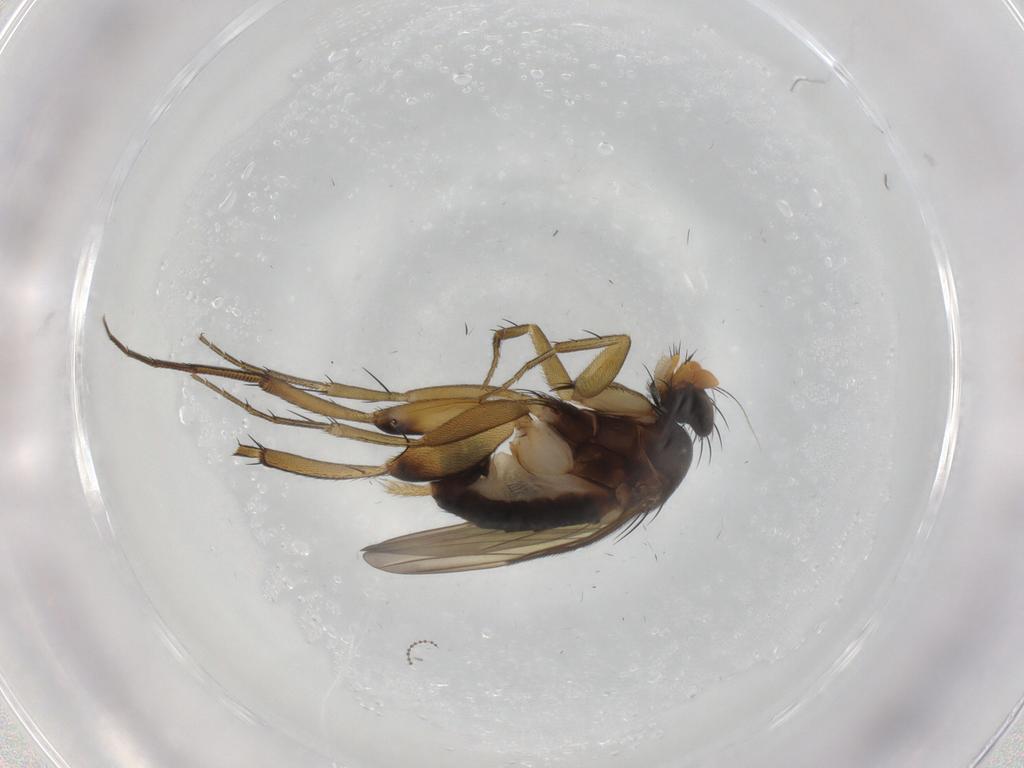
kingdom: Animalia
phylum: Arthropoda
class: Insecta
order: Diptera
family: Phoridae
